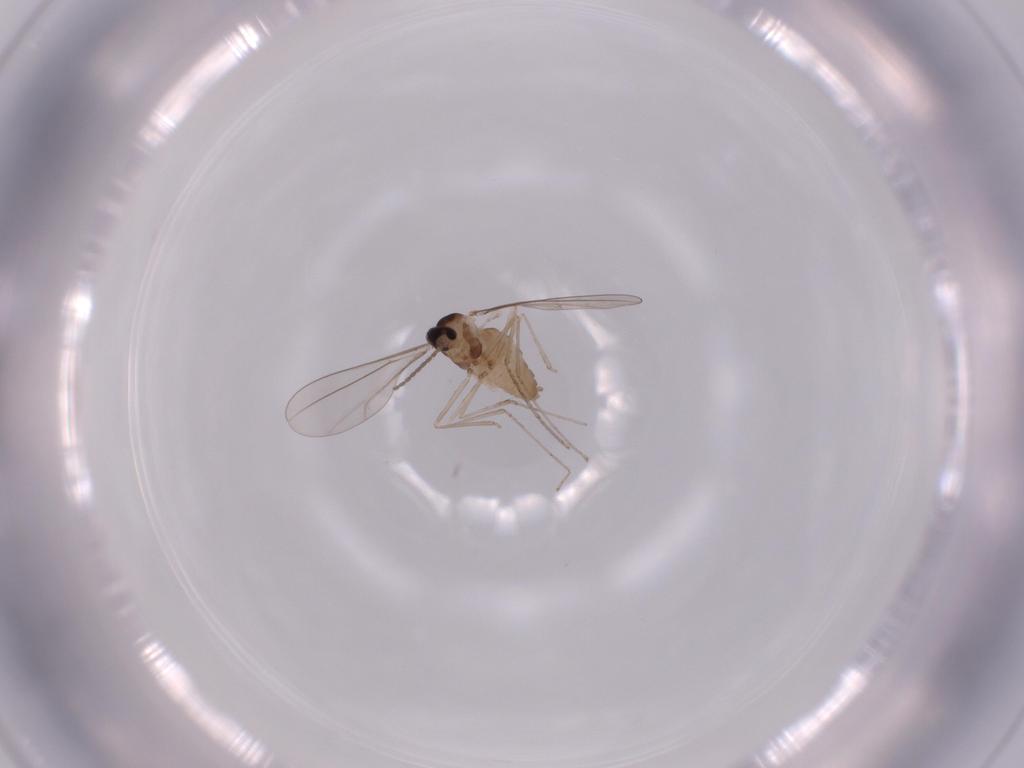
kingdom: Animalia
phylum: Arthropoda
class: Insecta
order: Diptera
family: Cecidomyiidae
